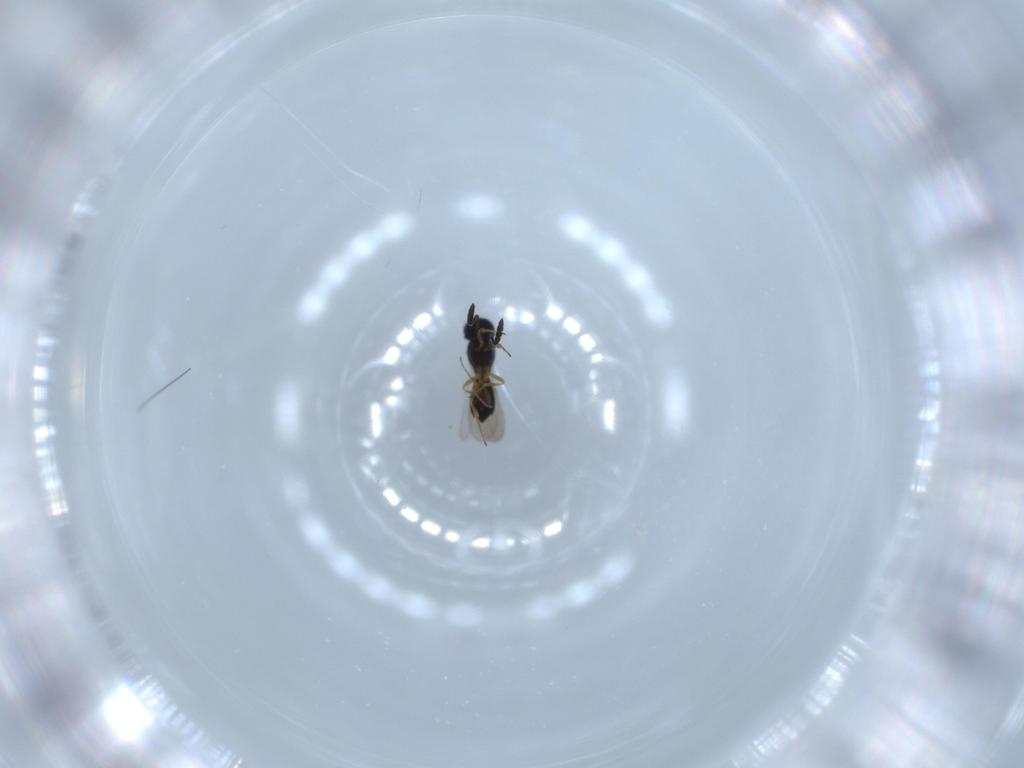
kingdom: Animalia
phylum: Arthropoda
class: Insecta
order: Hymenoptera
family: Scelionidae
